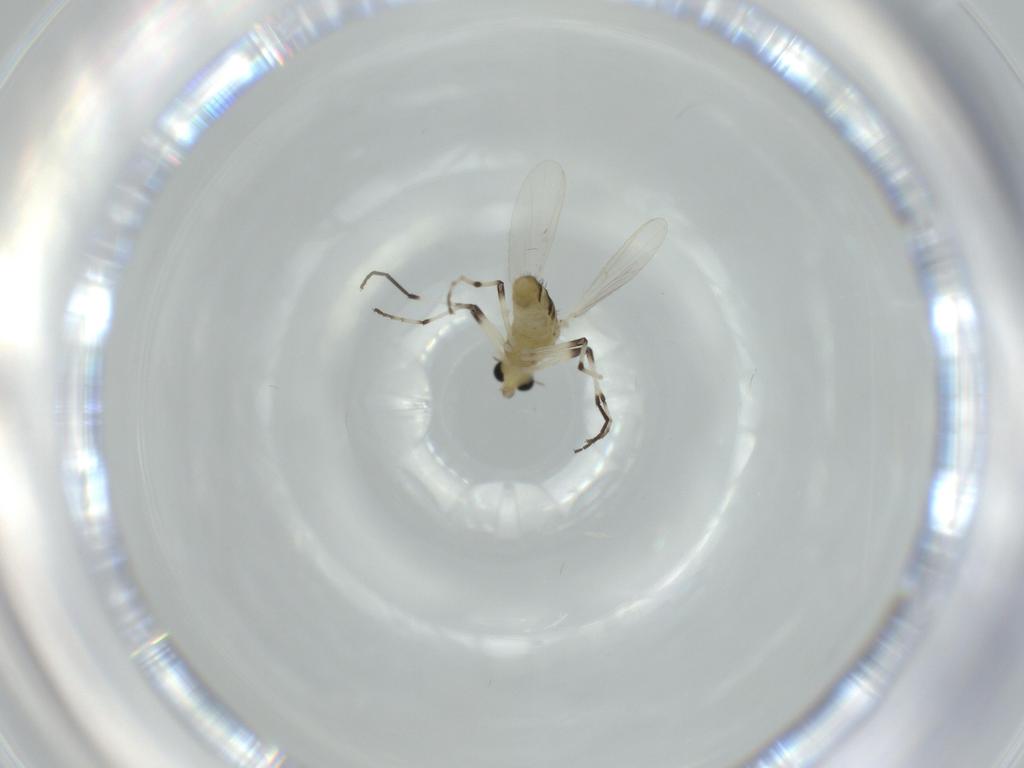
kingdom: Animalia
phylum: Arthropoda
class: Insecta
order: Diptera
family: Chironomidae
